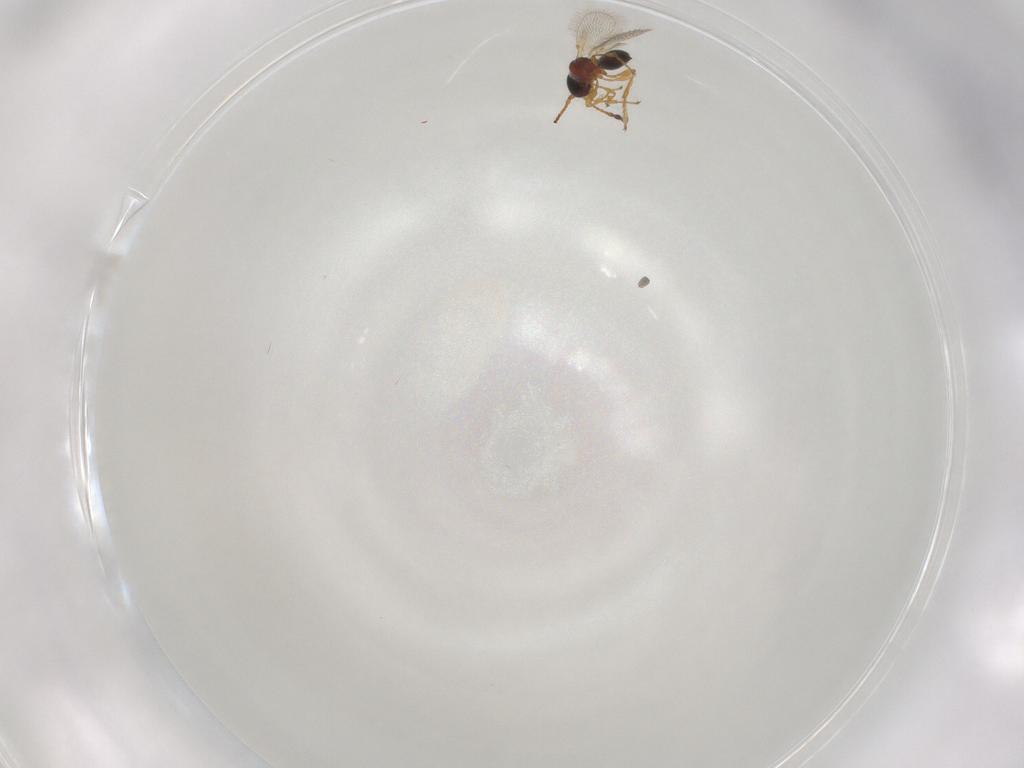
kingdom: Animalia
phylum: Arthropoda
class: Insecta
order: Hymenoptera
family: Diapriidae
